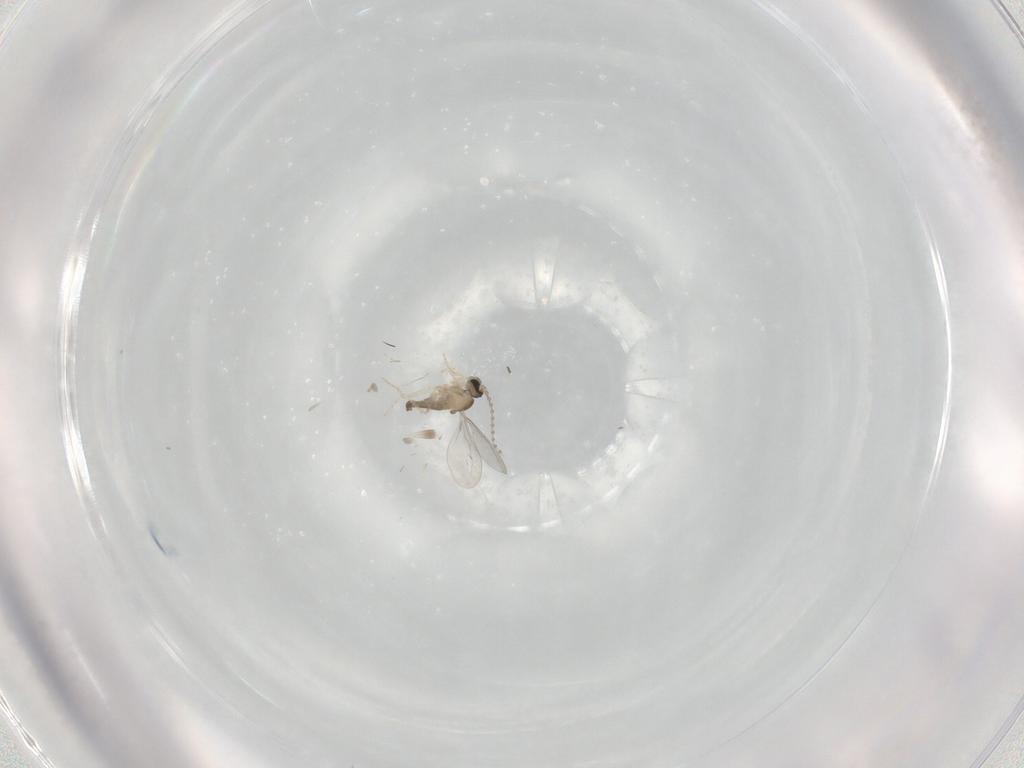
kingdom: Animalia
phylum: Arthropoda
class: Insecta
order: Diptera
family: Cecidomyiidae
